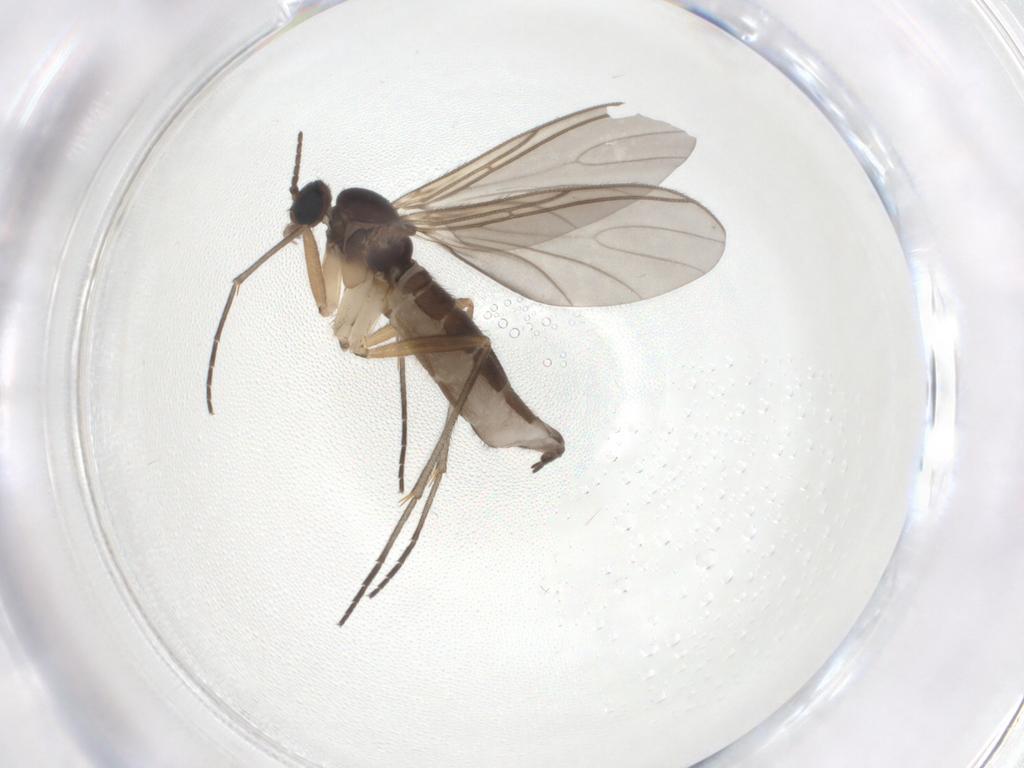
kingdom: Animalia
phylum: Arthropoda
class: Insecta
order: Diptera
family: Sciaridae
